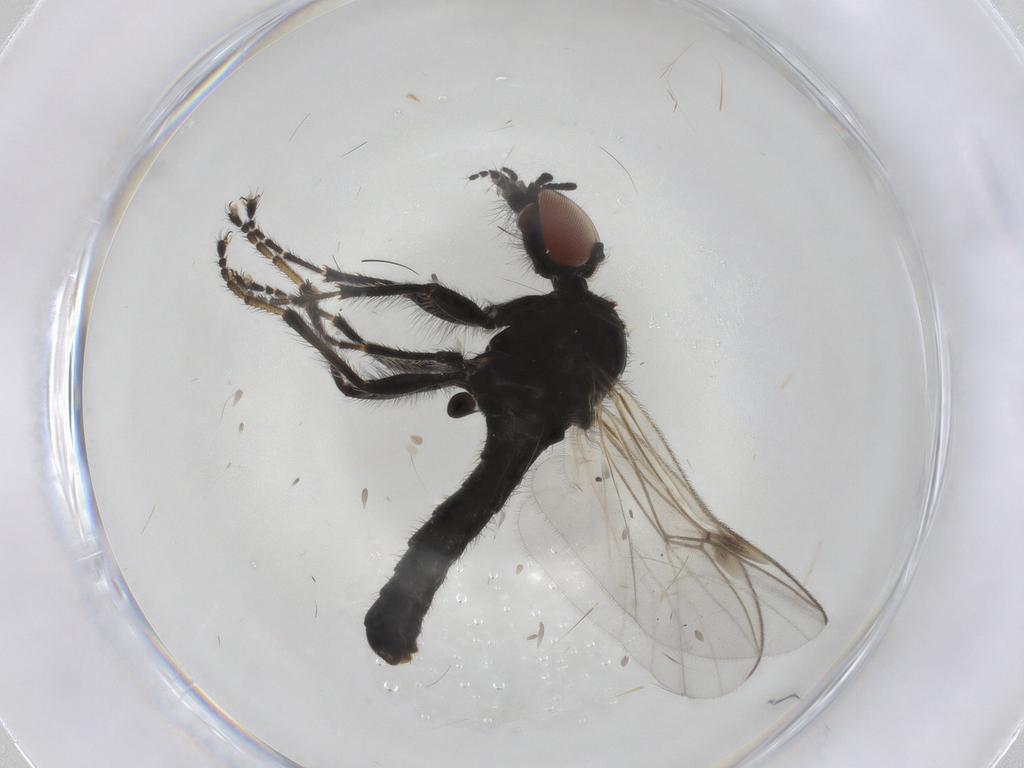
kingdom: Animalia
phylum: Arthropoda
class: Insecta
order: Diptera
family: Bibionidae
